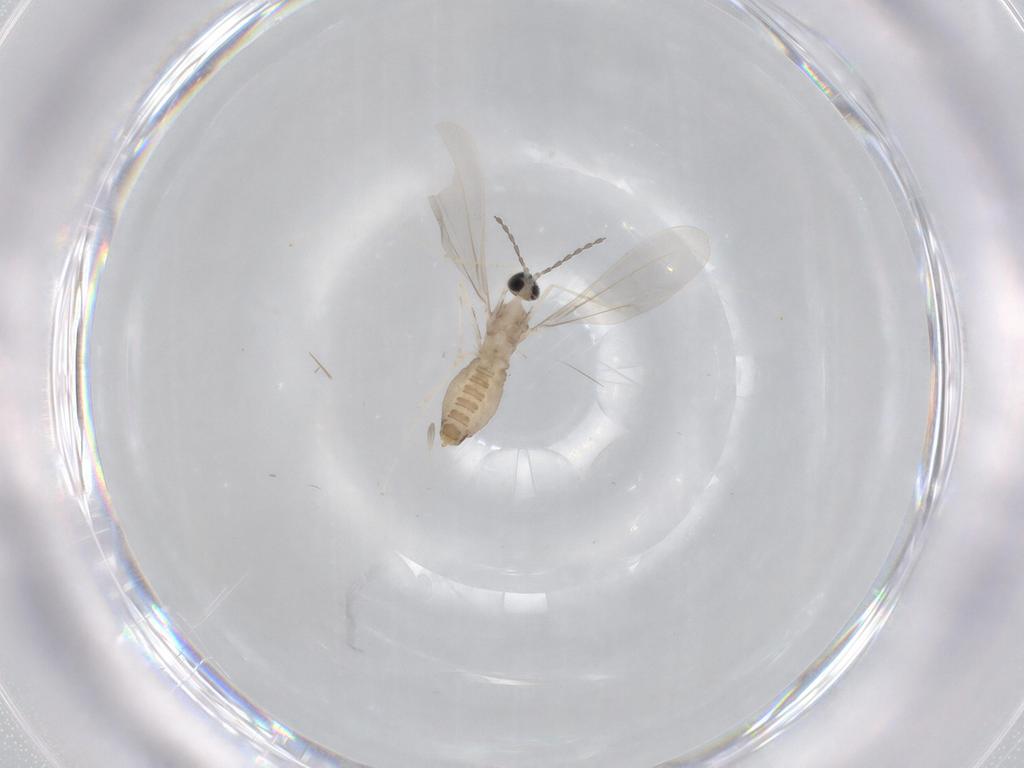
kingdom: Animalia
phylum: Arthropoda
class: Insecta
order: Diptera
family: Cecidomyiidae
